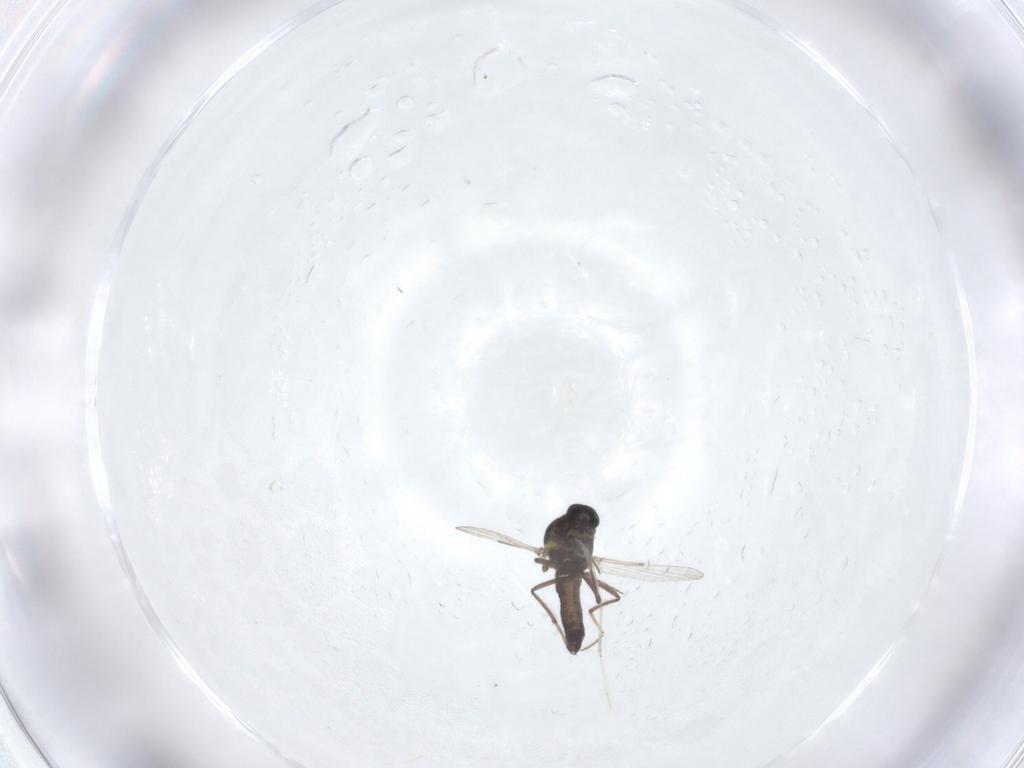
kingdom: Animalia
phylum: Arthropoda
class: Insecta
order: Diptera
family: Ceratopogonidae
